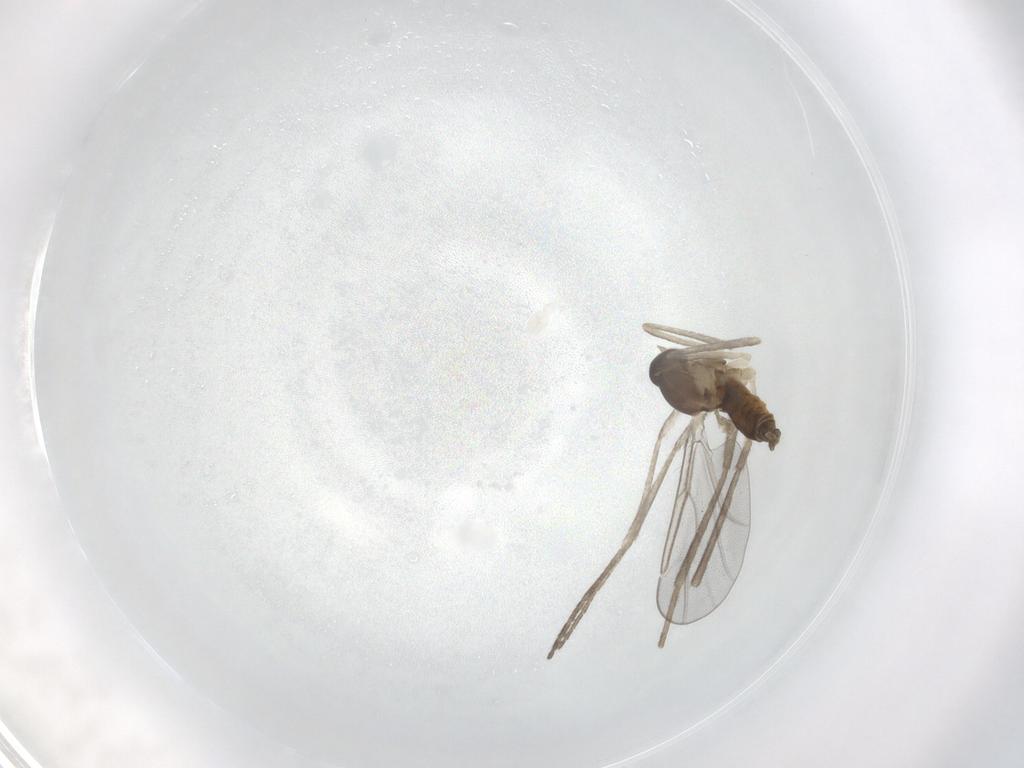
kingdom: Animalia
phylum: Arthropoda
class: Insecta
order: Diptera
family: Cecidomyiidae
